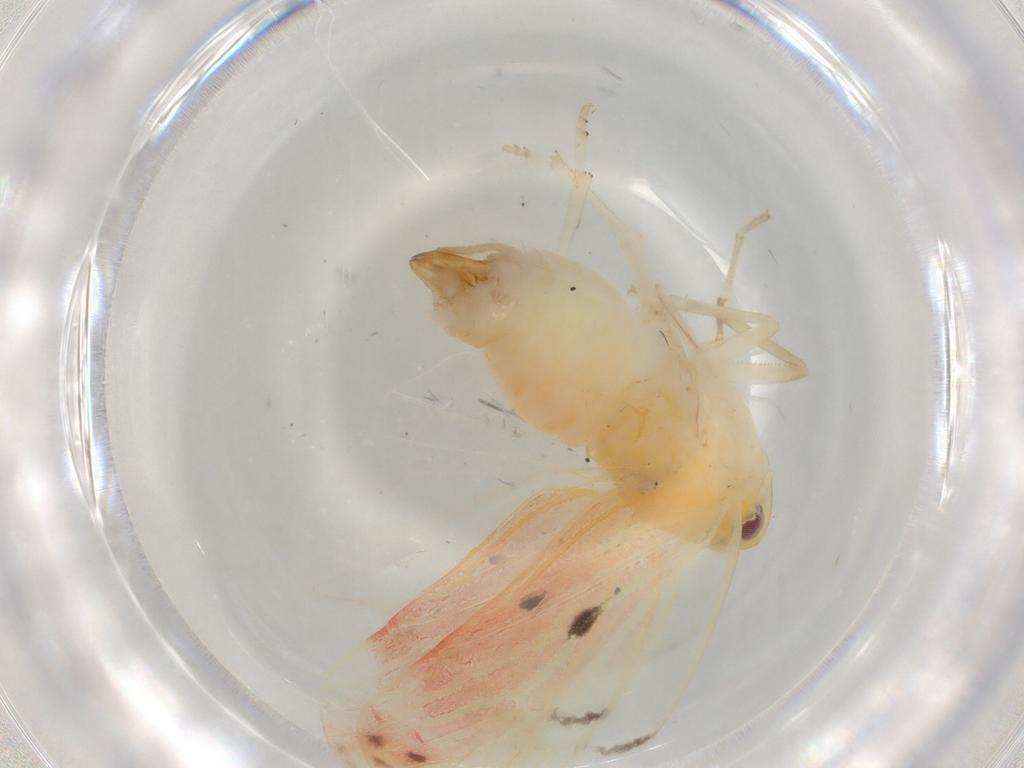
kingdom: Animalia
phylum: Arthropoda
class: Insecta
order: Hemiptera
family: Derbidae
